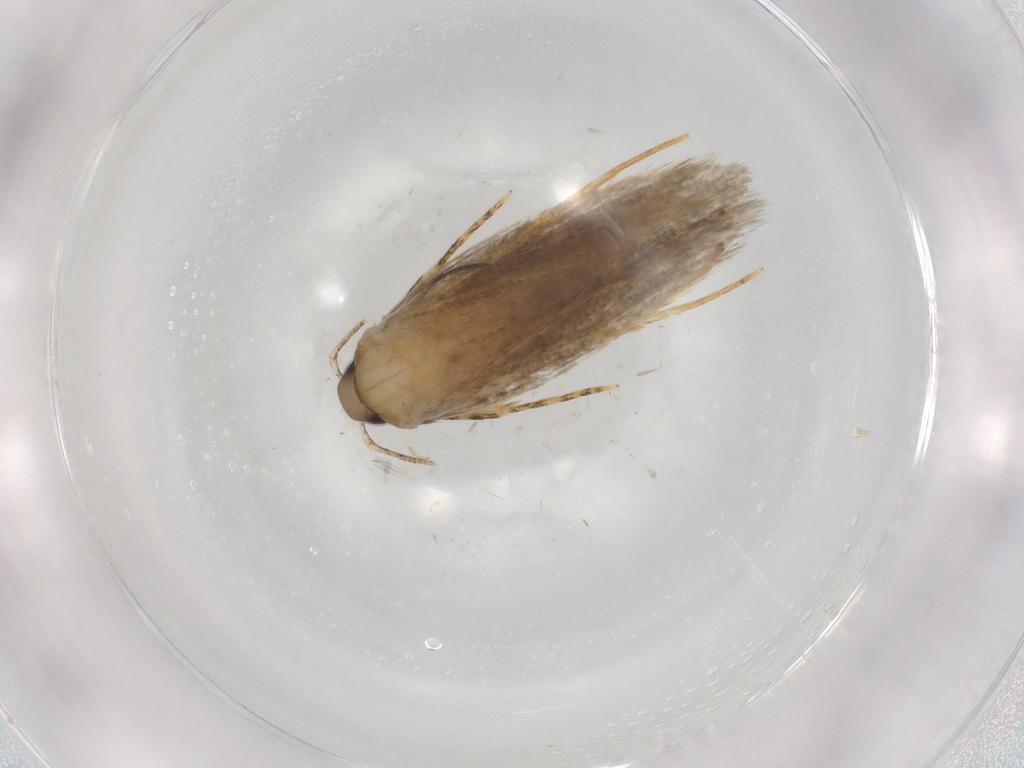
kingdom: Animalia
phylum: Arthropoda
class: Insecta
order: Lepidoptera
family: Autostichidae
